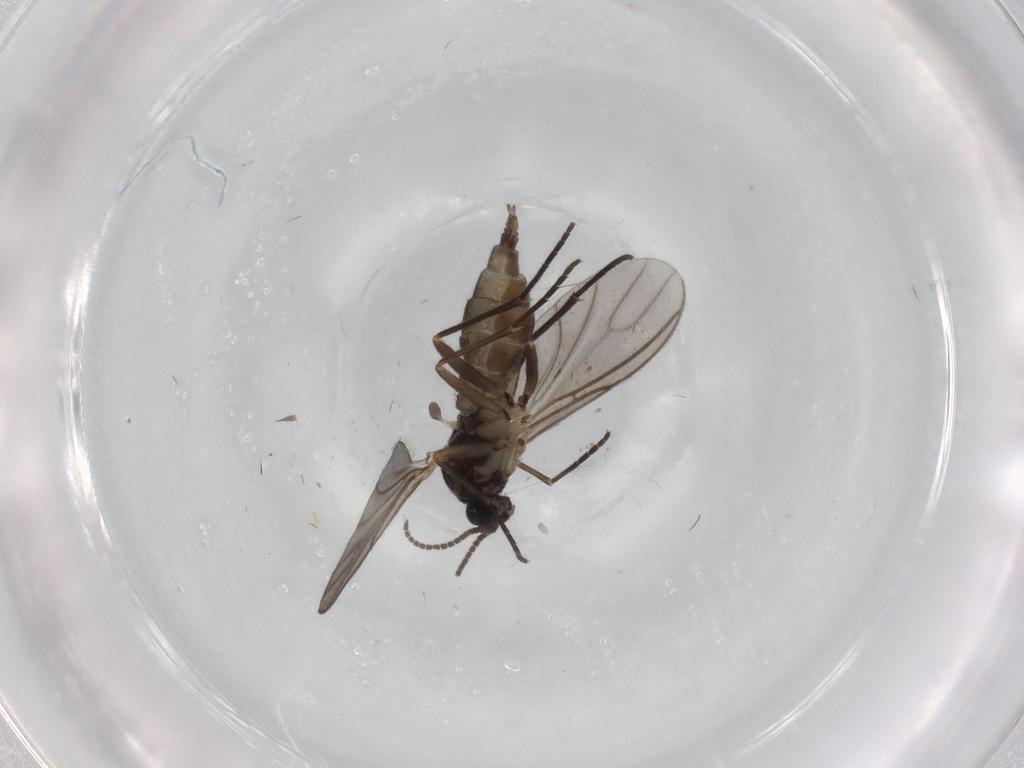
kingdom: Animalia
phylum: Arthropoda
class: Insecta
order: Diptera
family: Sciaridae
